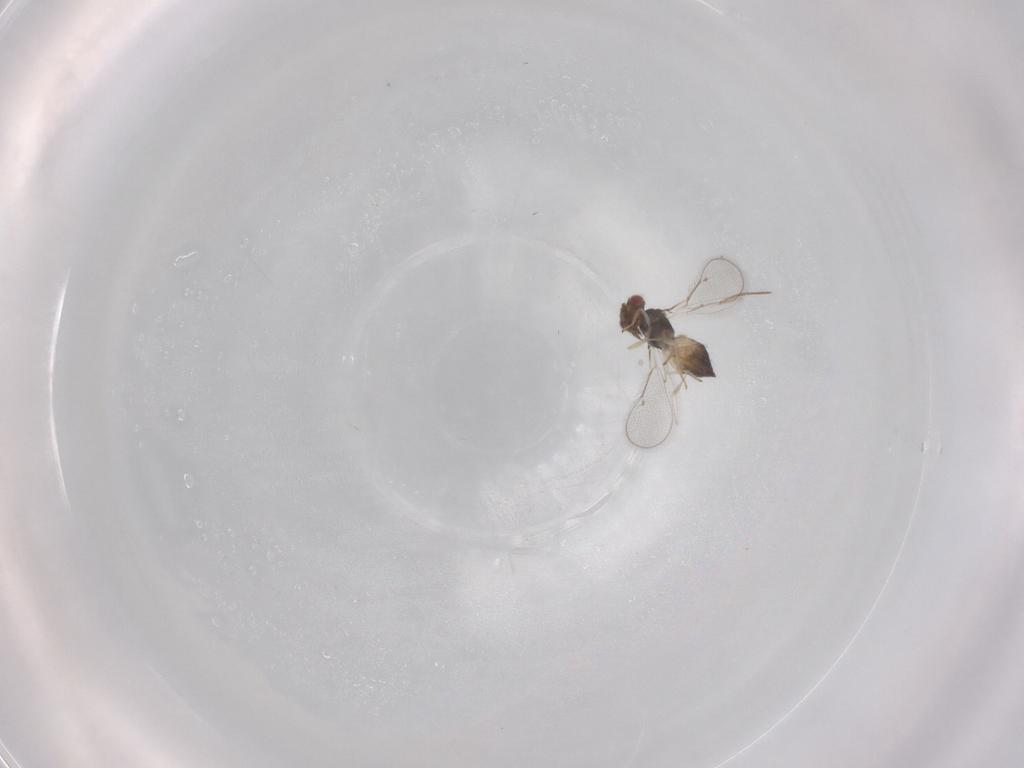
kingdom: Animalia
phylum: Arthropoda
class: Insecta
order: Hymenoptera
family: Eulophidae
